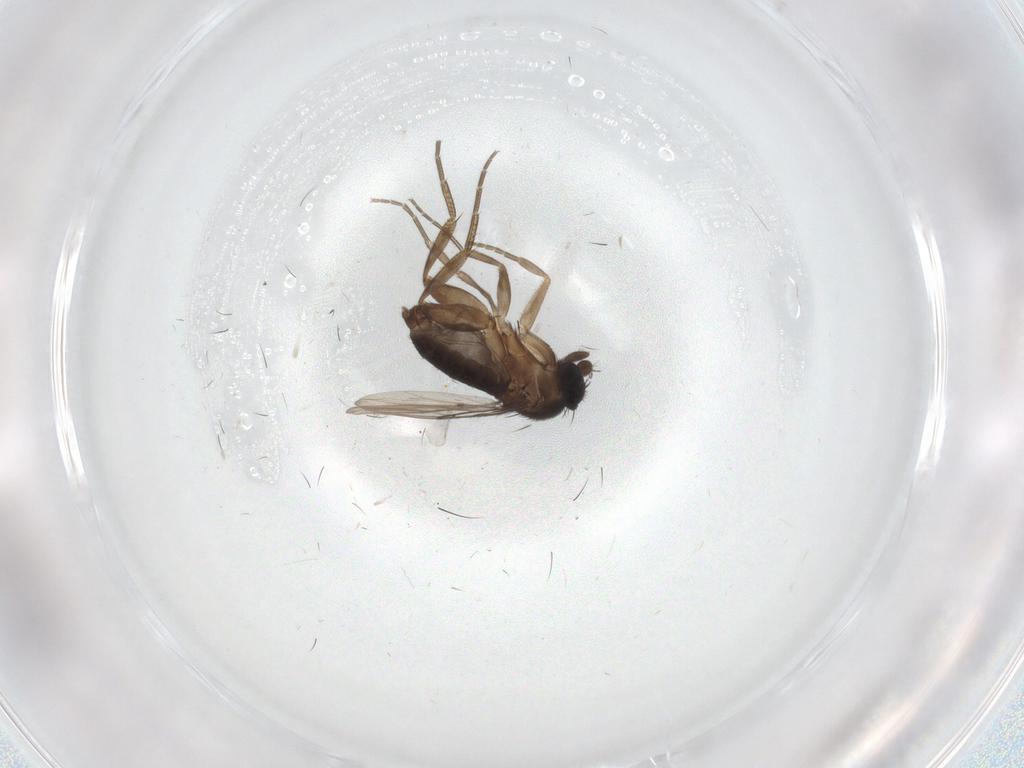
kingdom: Animalia
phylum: Arthropoda
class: Insecta
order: Diptera
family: Phoridae
